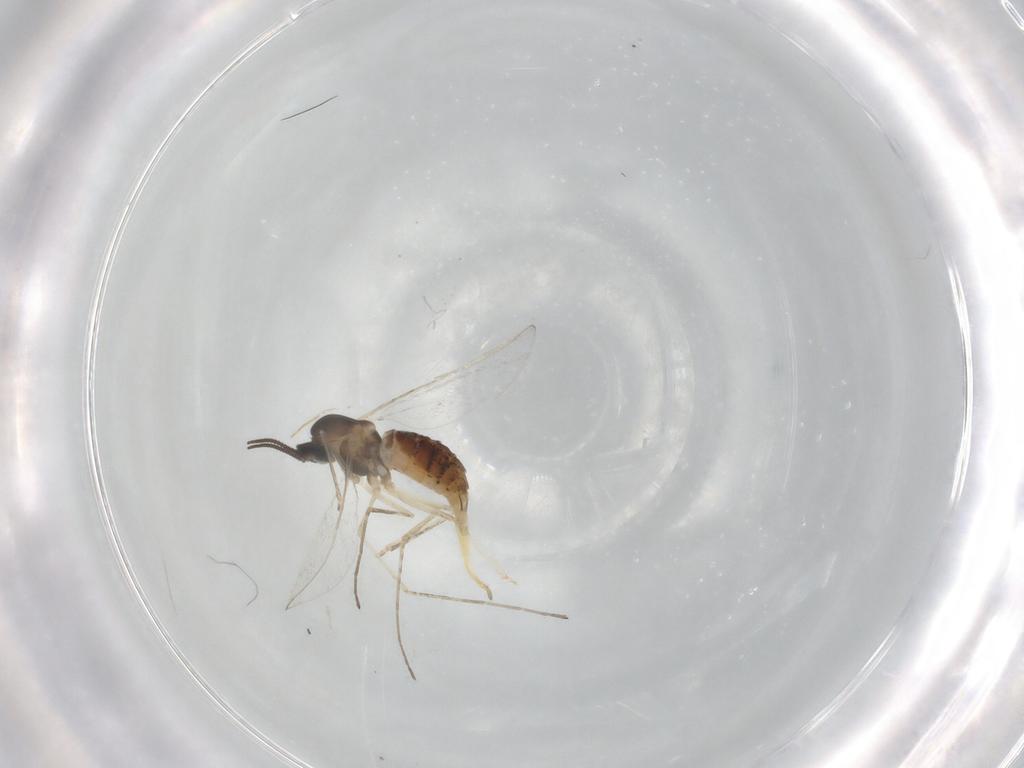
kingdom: Animalia
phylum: Arthropoda
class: Insecta
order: Diptera
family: Cecidomyiidae
